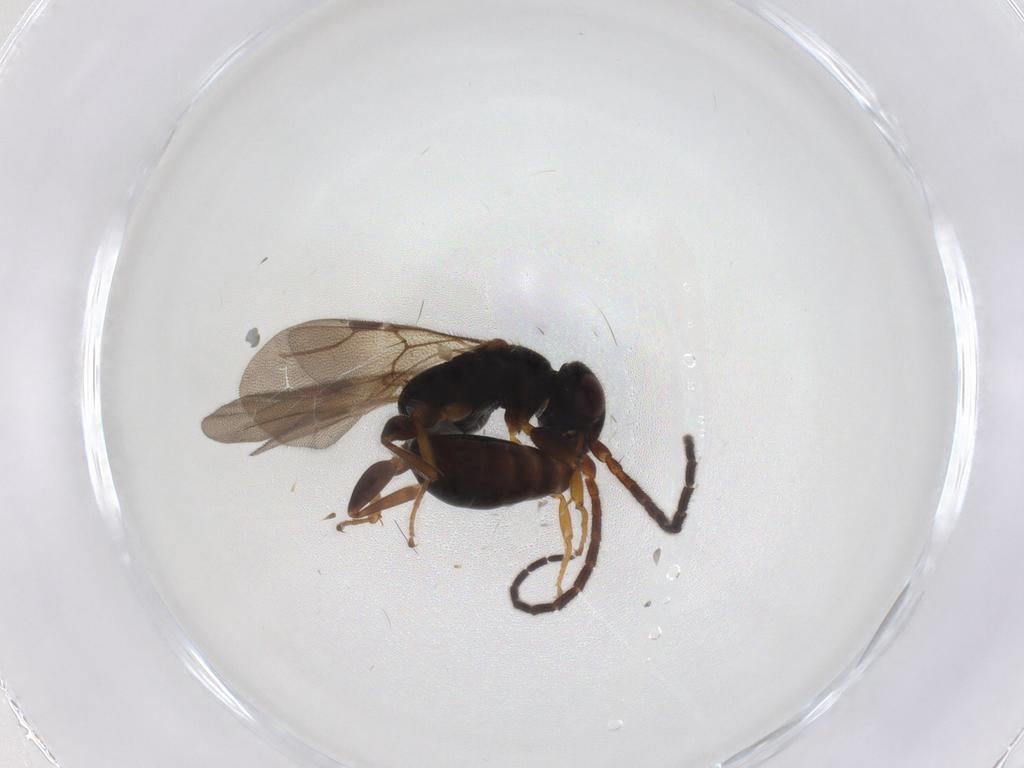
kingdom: Animalia
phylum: Arthropoda
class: Insecta
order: Hymenoptera
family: Bethylidae
